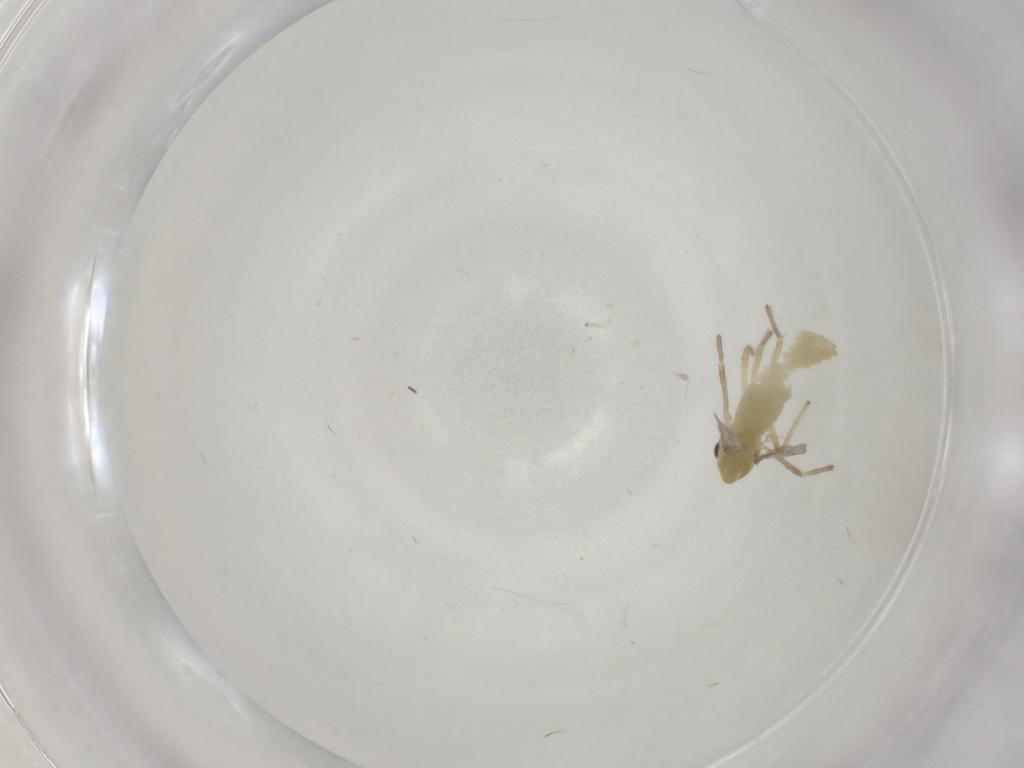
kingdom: Animalia
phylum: Arthropoda
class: Insecta
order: Diptera
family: Chironomidae
